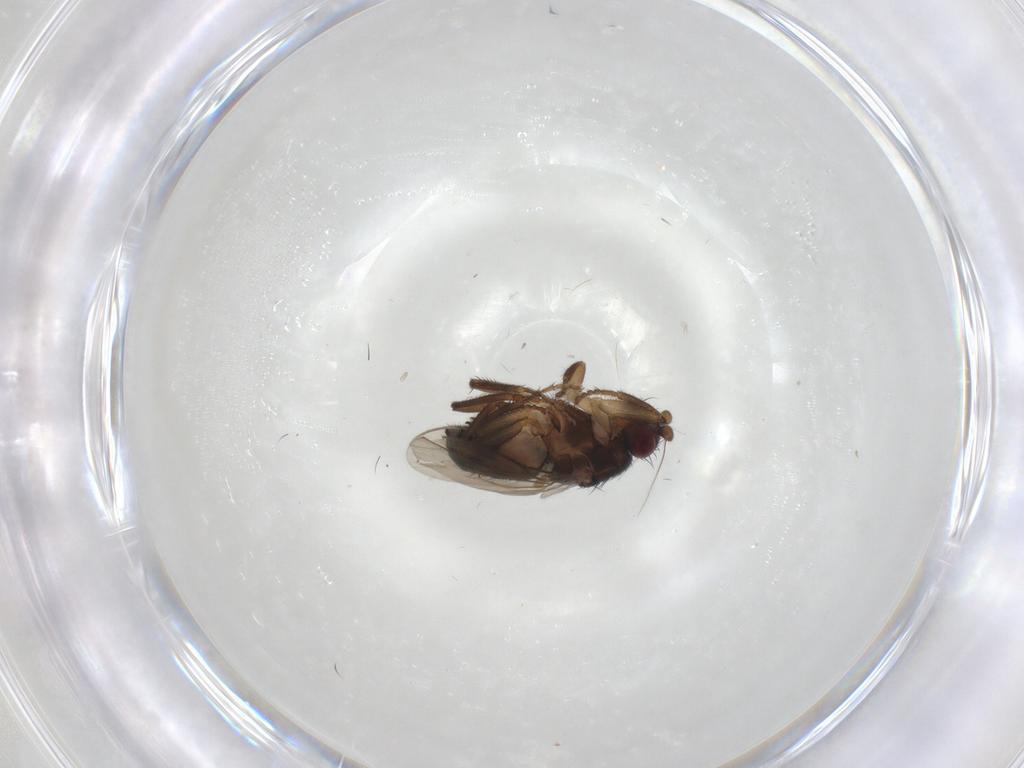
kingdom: Animalia
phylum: Arthropoda
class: Insecta
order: Diptera
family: Sphaeroceridae
